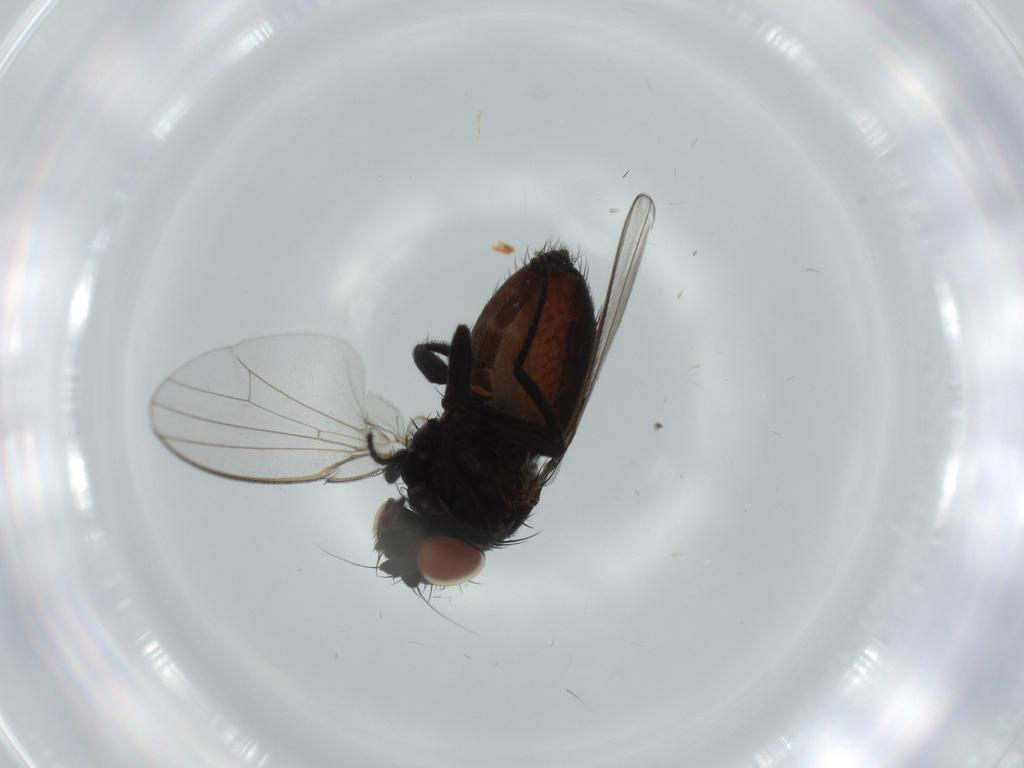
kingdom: Animalia
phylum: Arthropoda
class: Insecta
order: Diptera
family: Milichiidae
